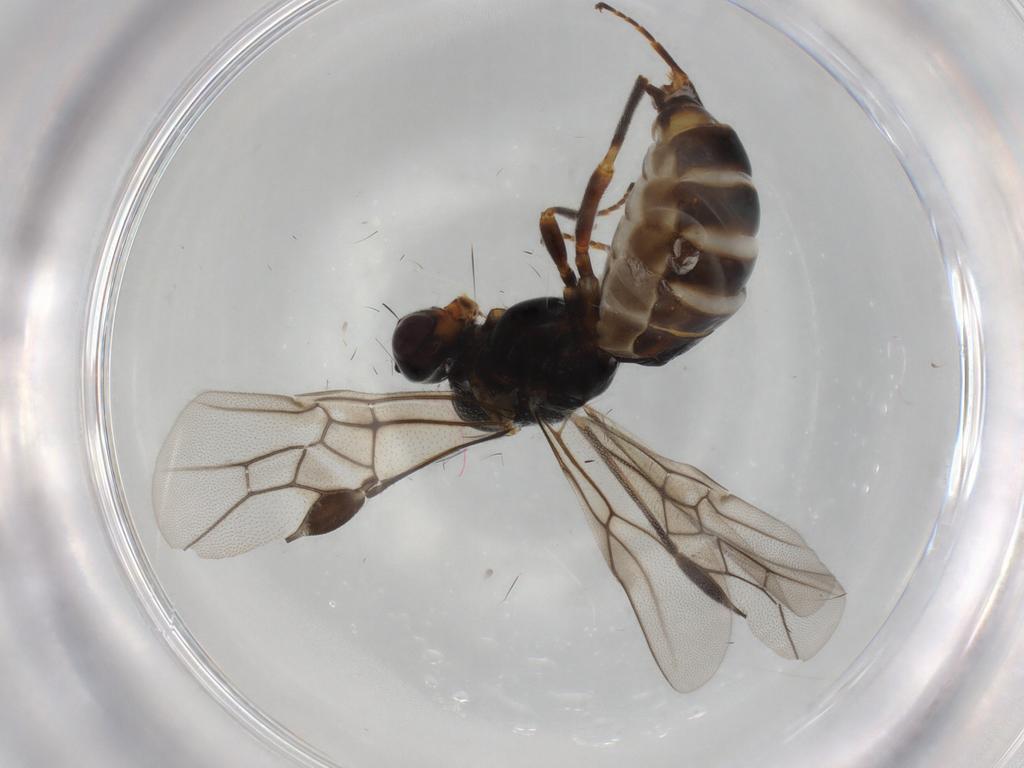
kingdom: Animalia
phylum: Arthropoda
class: Insecta
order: Hymenoptera
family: Braconidae
